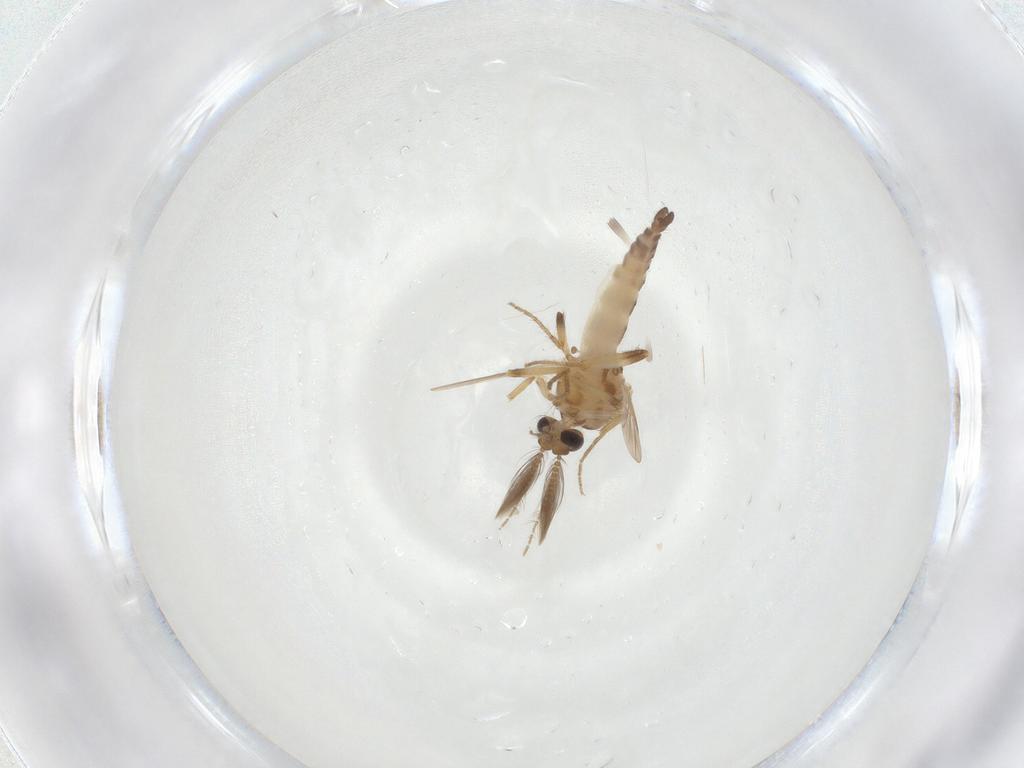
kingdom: Animalia
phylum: Arthropoda
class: Insecta
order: Diptera
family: Ceratopogonidae
